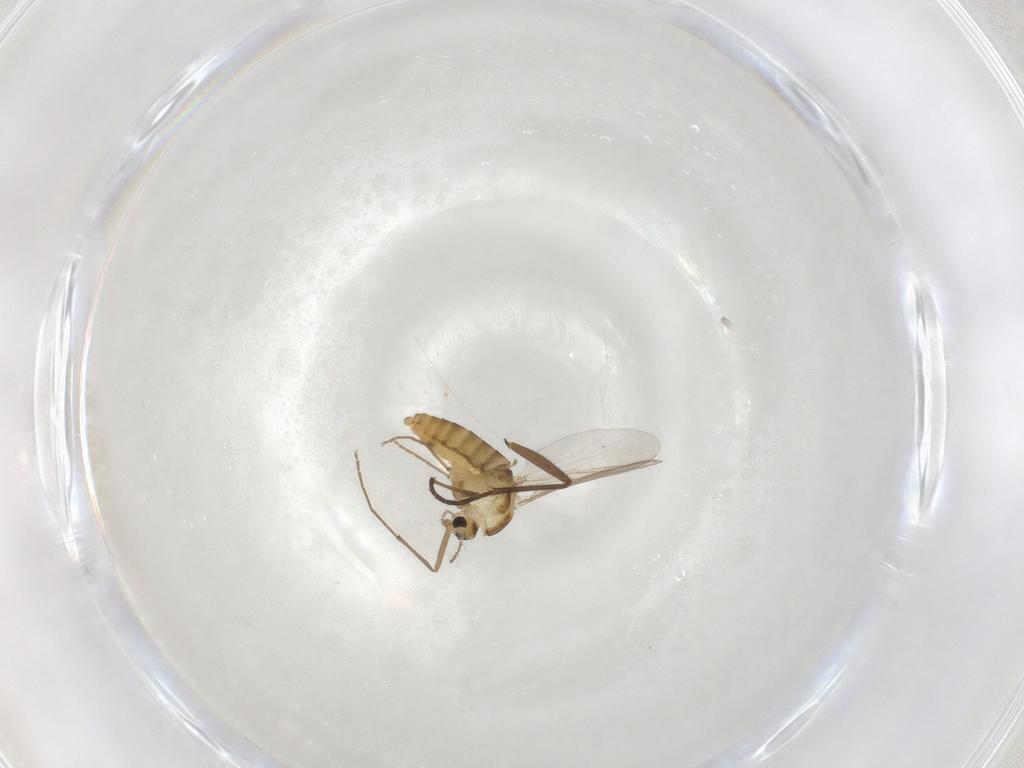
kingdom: Animalia
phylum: Arthropoda
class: Insecta
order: Diptera
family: Chironomidae
